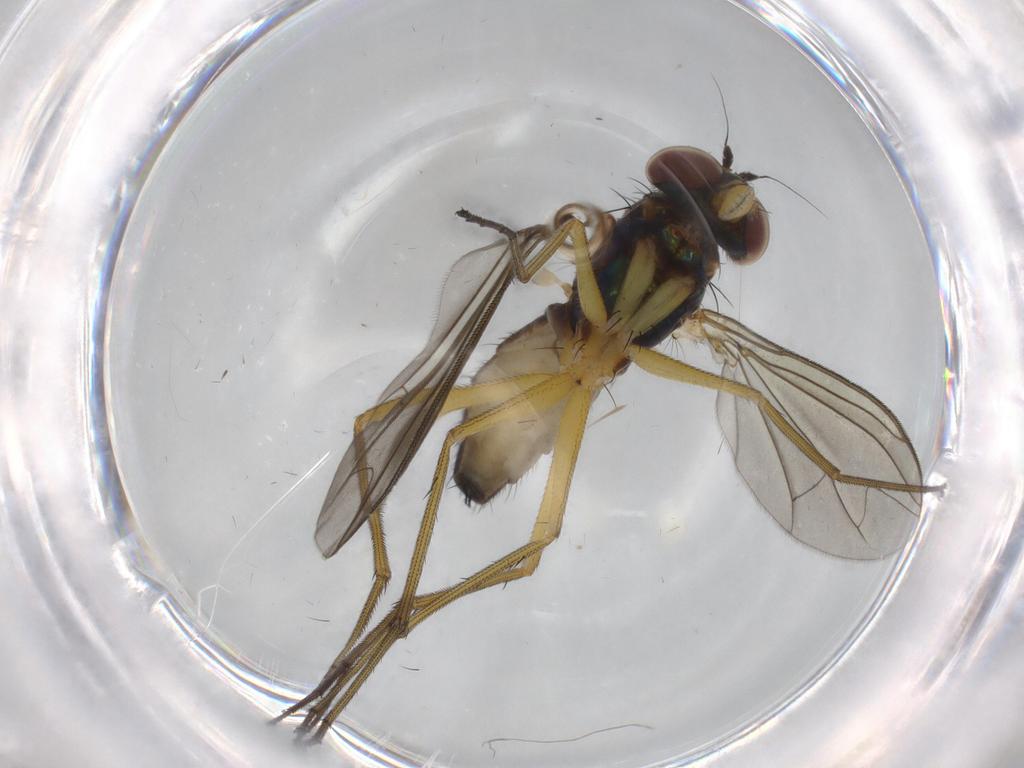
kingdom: Animalia
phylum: Arthropoda
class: Insecta
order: Diptera
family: Dolichopodidae
